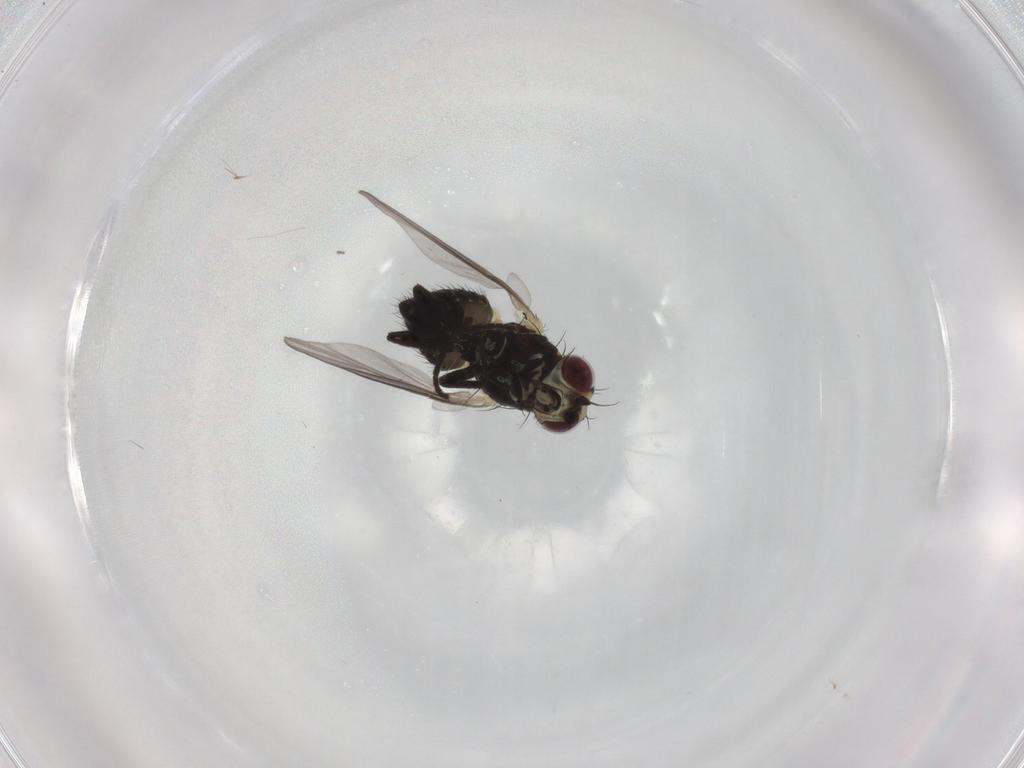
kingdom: Animalia
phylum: Arthropoda
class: Insecta
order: Diptera
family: Agromyzidae
